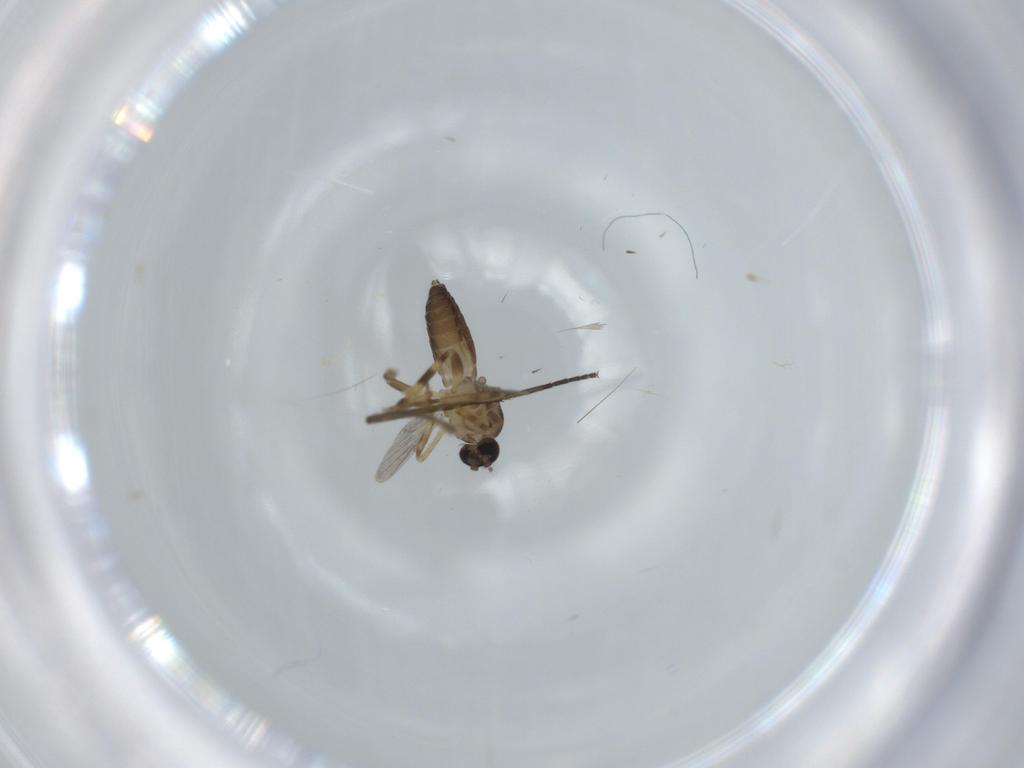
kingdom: Animalia
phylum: Arthropoda
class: Insecta
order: Diptera
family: Ceratopogonidae
